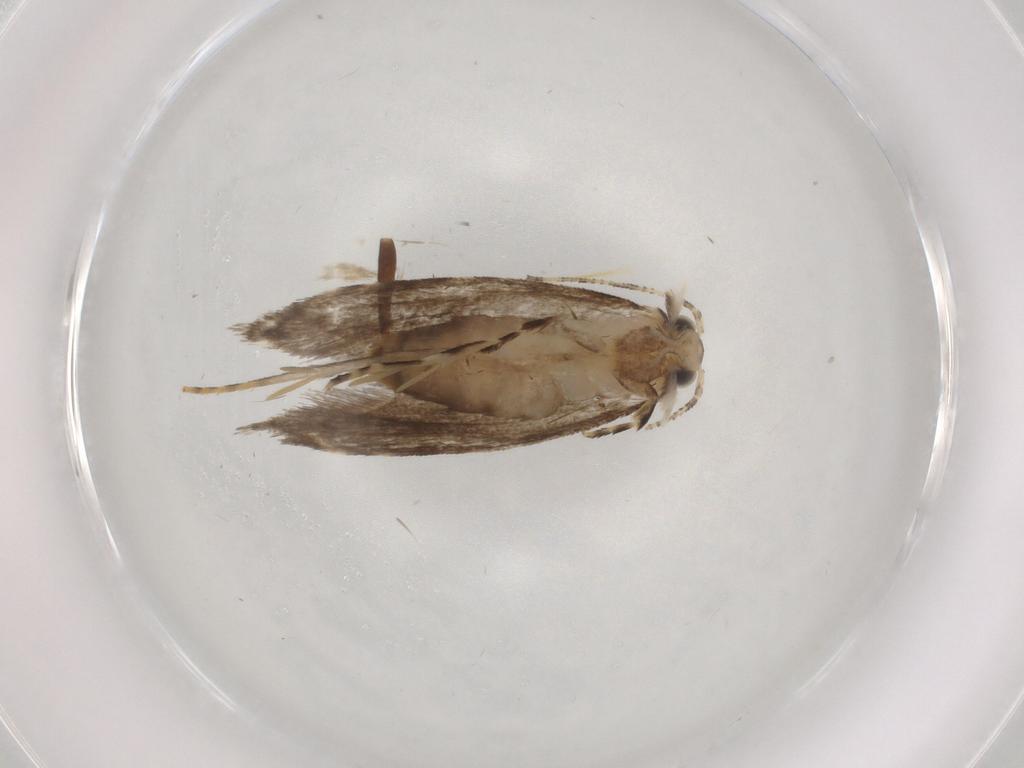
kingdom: Animalia
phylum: Arthropoda
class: Insecta
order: Lepidoptera
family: Tineidae
